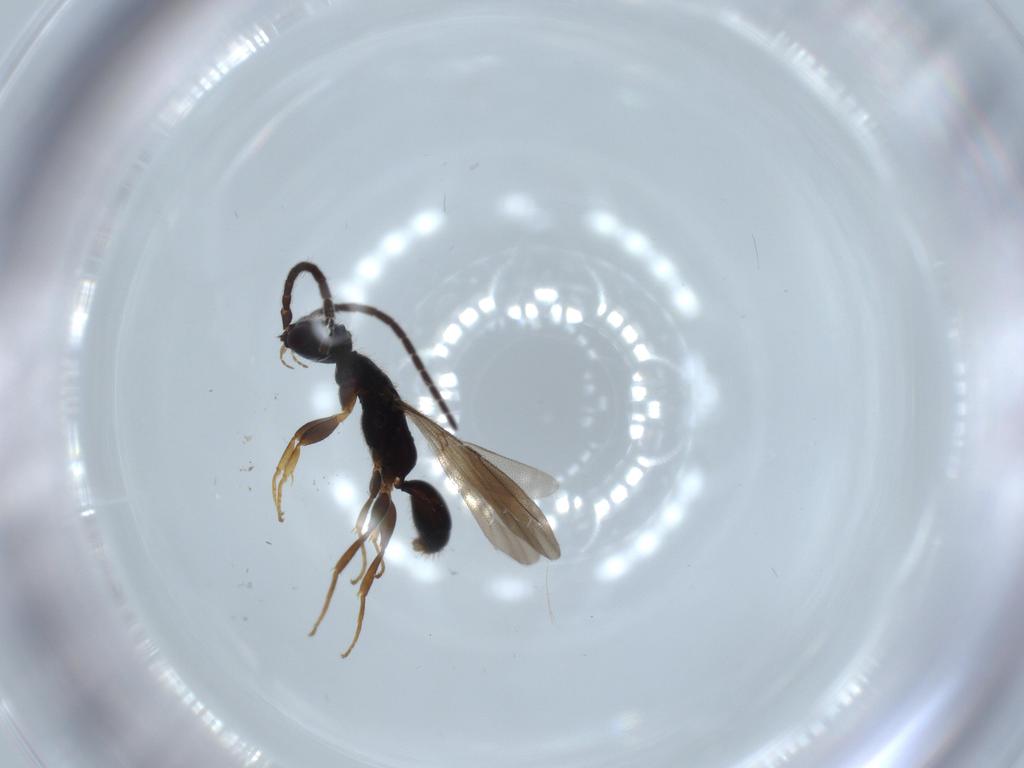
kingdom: Animalia
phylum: Arthropoda
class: Insecta
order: Hymenoptera
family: Bethylidae
